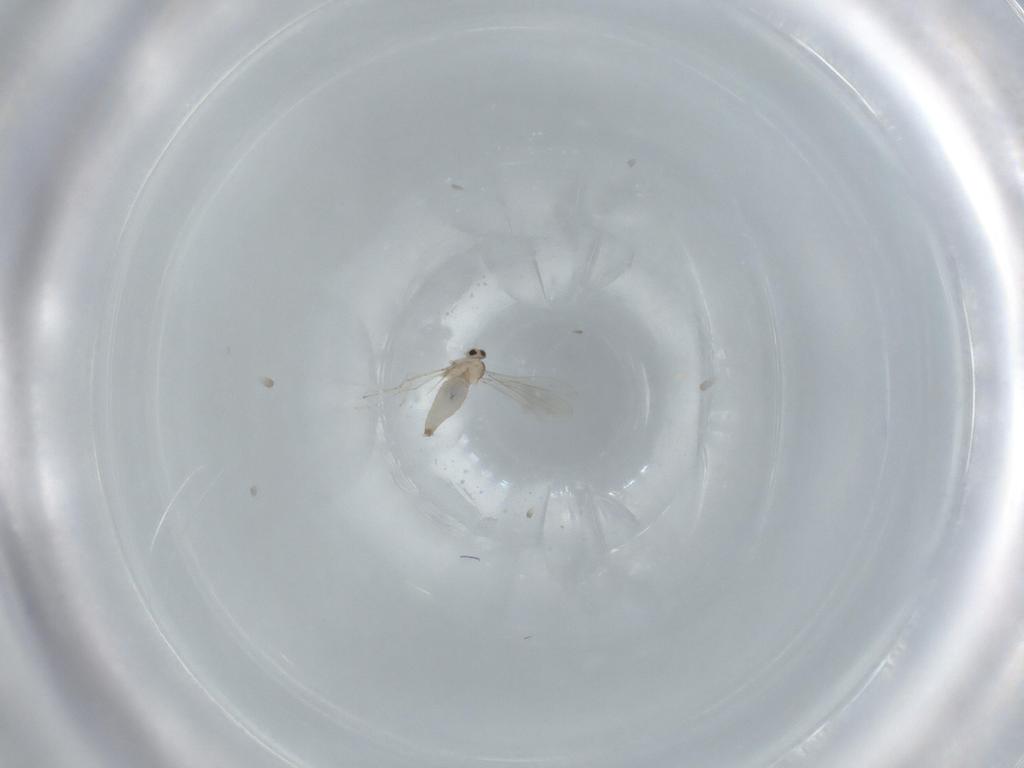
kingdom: Animalia
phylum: Arthropoda
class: Insecta
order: Diptera
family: Cecidomyiidae
